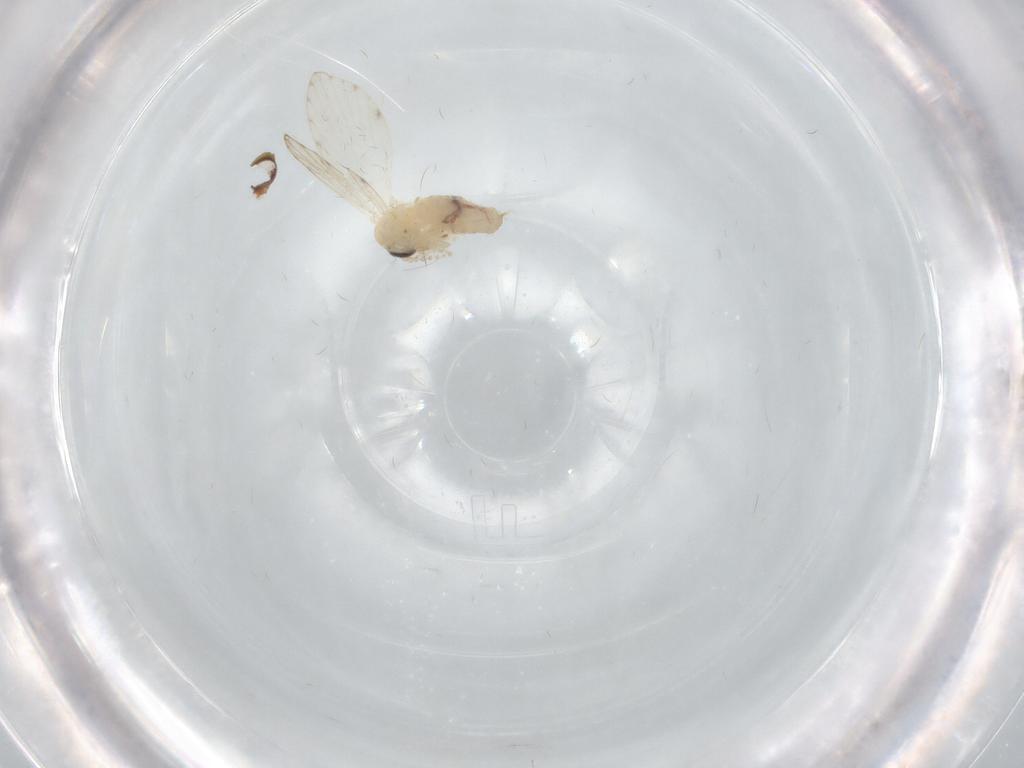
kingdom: Animalia
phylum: Arthropoda
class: Insecta
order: Diptera
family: Psychodidae
